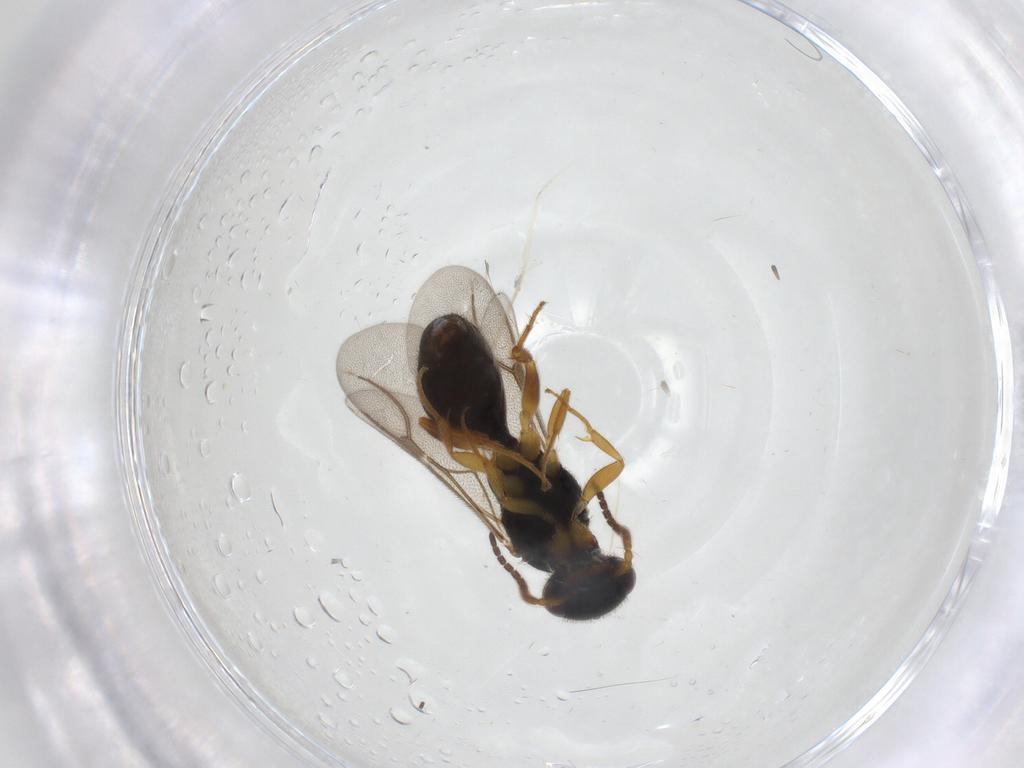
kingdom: Animalia
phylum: Arthropoda
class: Insecta
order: Hymenoptera
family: Bethylidae
